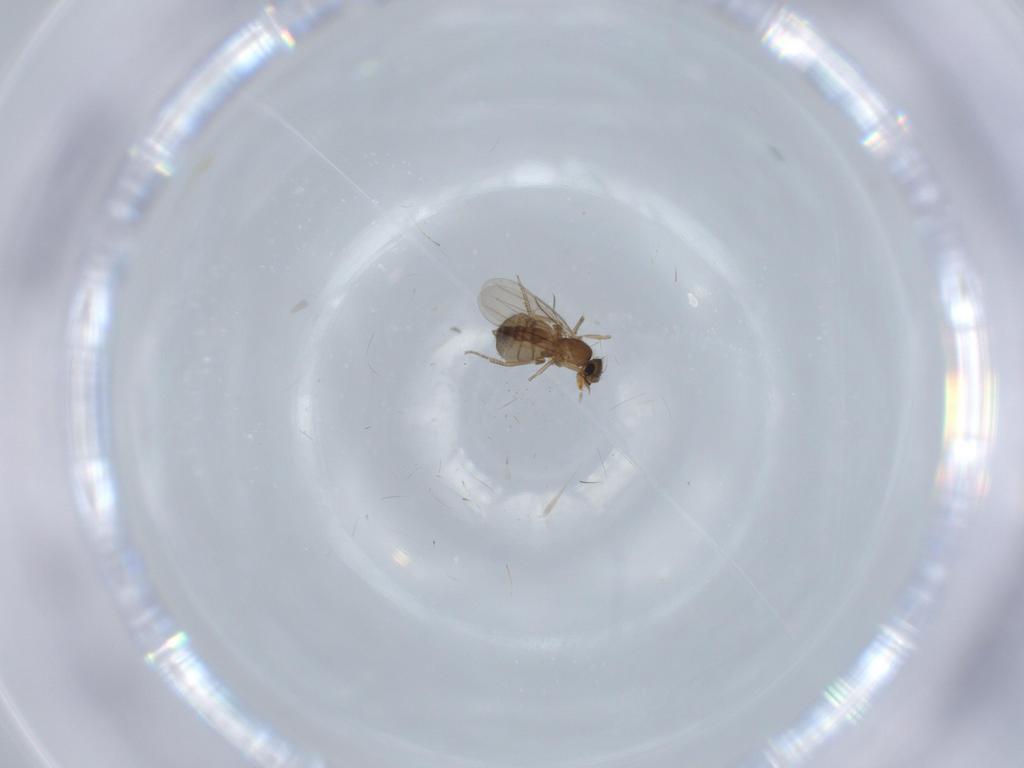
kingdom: Animalia
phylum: Arthropoda
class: Insecta
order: Diptera
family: Phoridae
